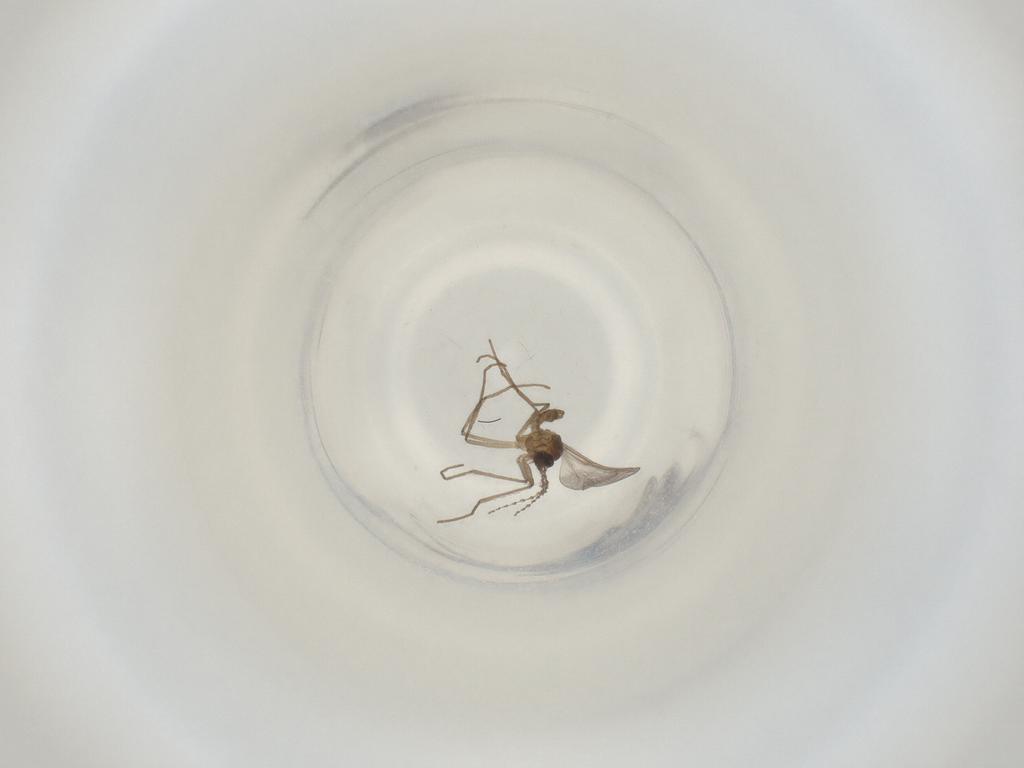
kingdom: Animalia
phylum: Arthropoda
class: Insecta
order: Diptera
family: Cecidomyiidae
